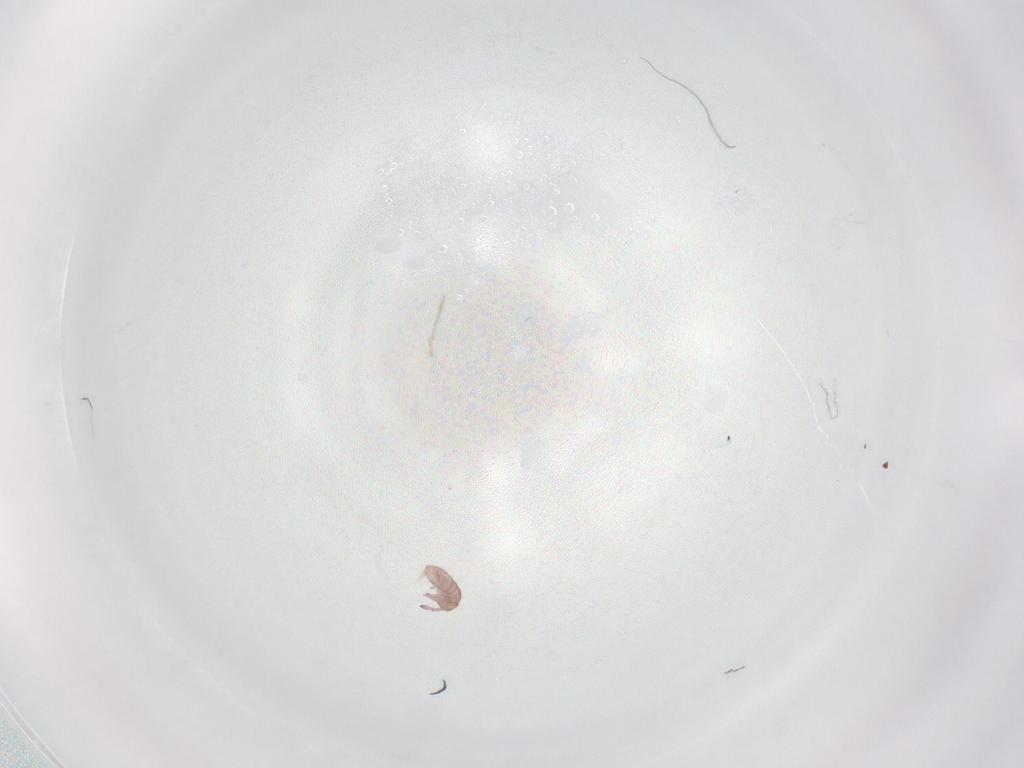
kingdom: Animalia
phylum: Arthropoda
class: Collembola
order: Entomobryomorpha
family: Isotomidae
